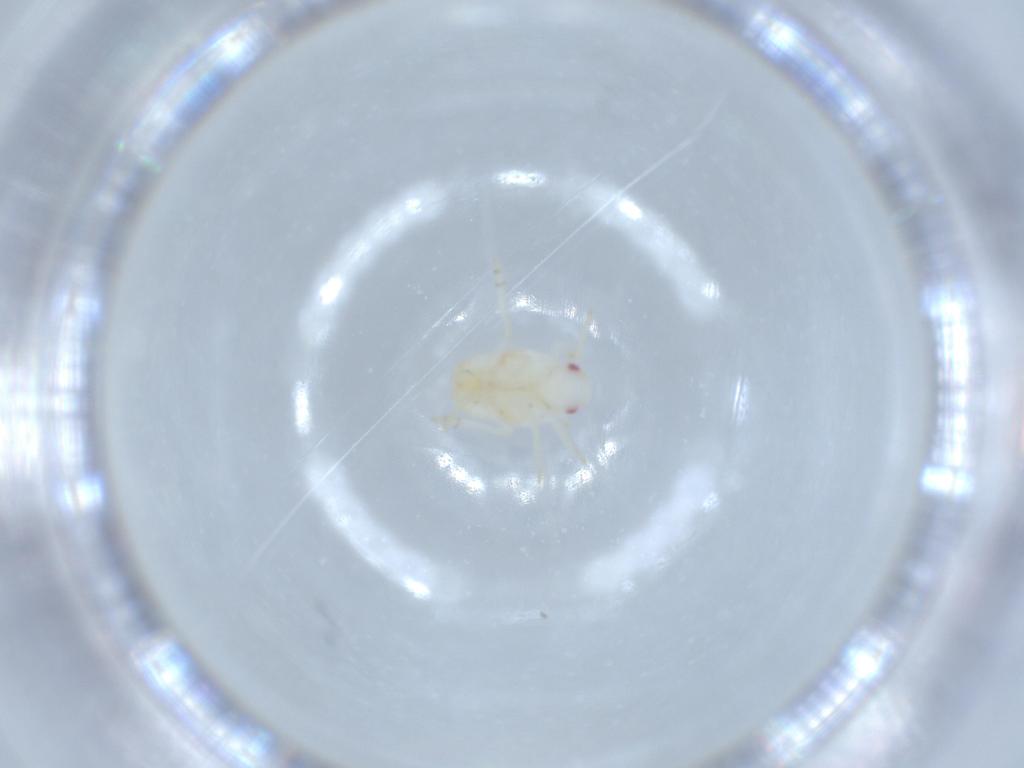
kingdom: Animalia
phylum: Arthropoda
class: Insecta
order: Hemiptera
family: Flatidae
